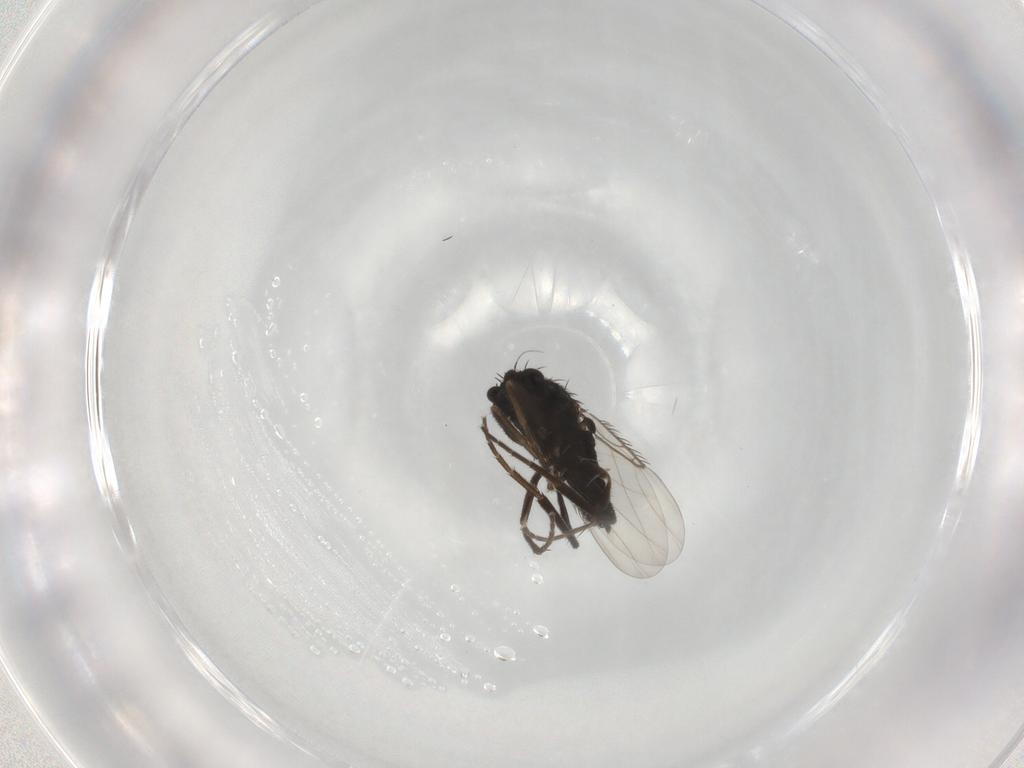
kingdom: Animalia
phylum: Arthropoda
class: Insecta
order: Diptera
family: Phoridae
